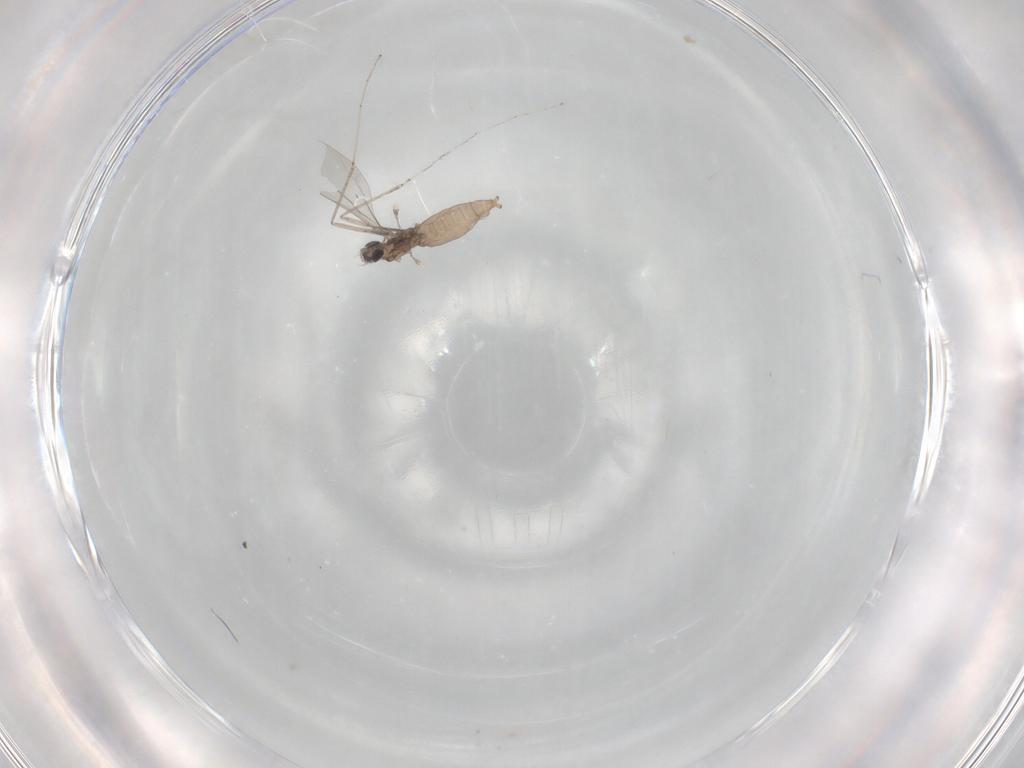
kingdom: Animalia
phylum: Arthropoda
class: Insecta
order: Diptera
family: Cecidomyiidae
